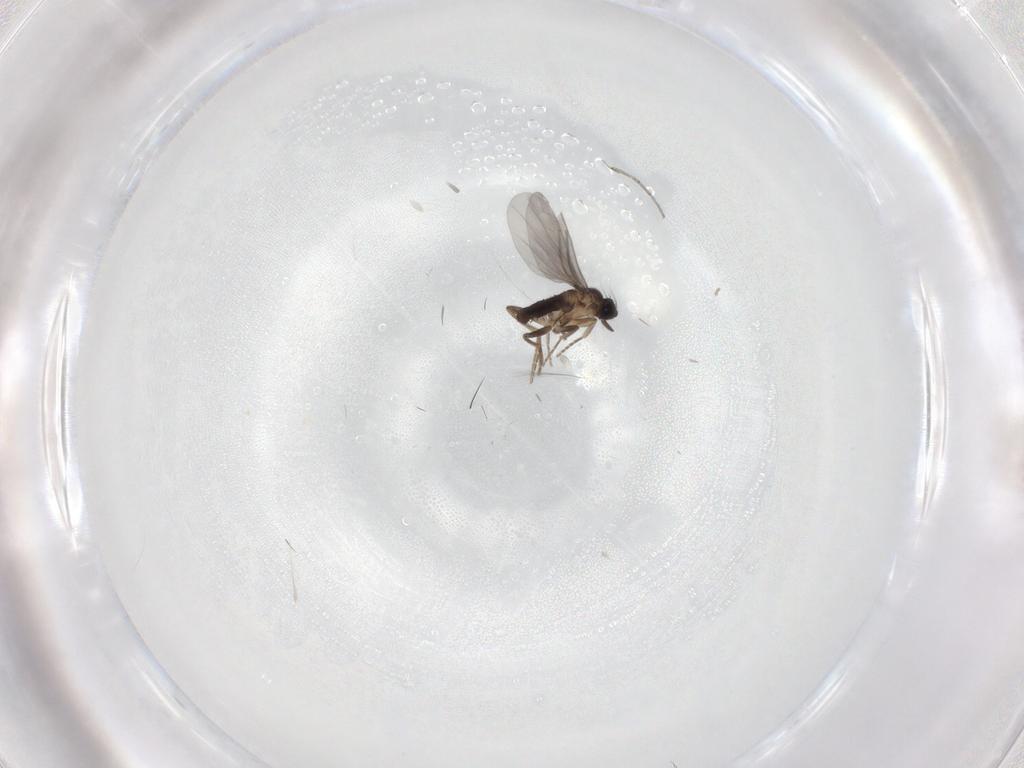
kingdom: Animalia
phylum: Arthropoda
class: Insecta
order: Diptera
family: Chironomidae
